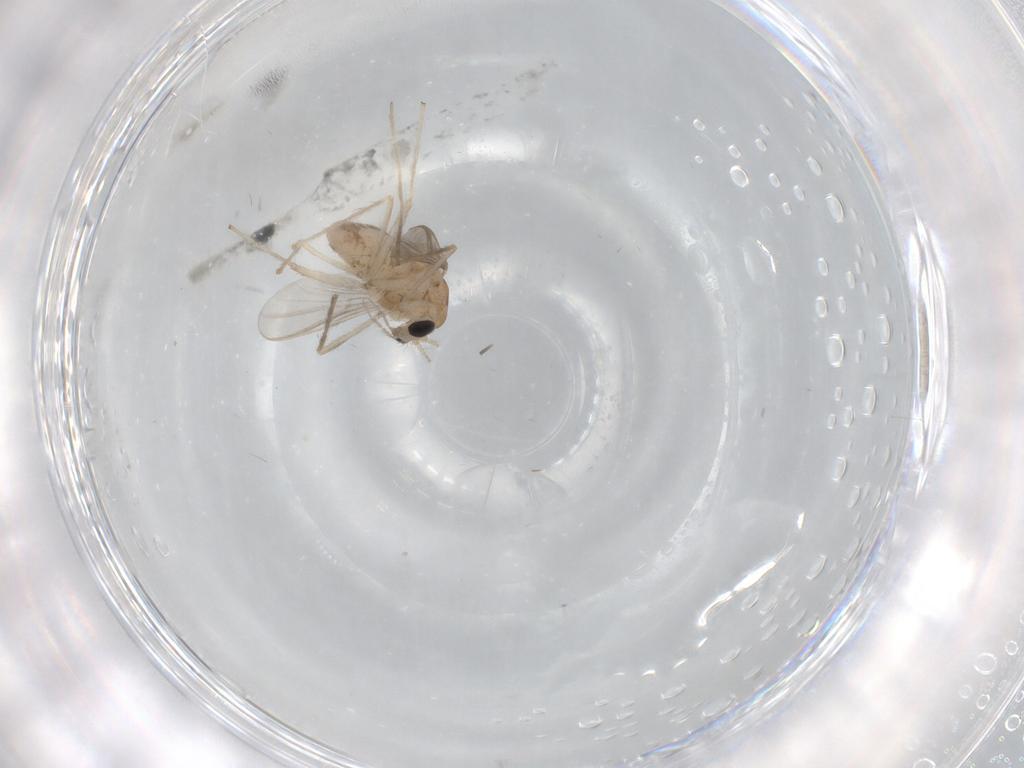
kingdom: Animalia
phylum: Arthropoda
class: Insecta
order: Diptera
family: Chironomidae
